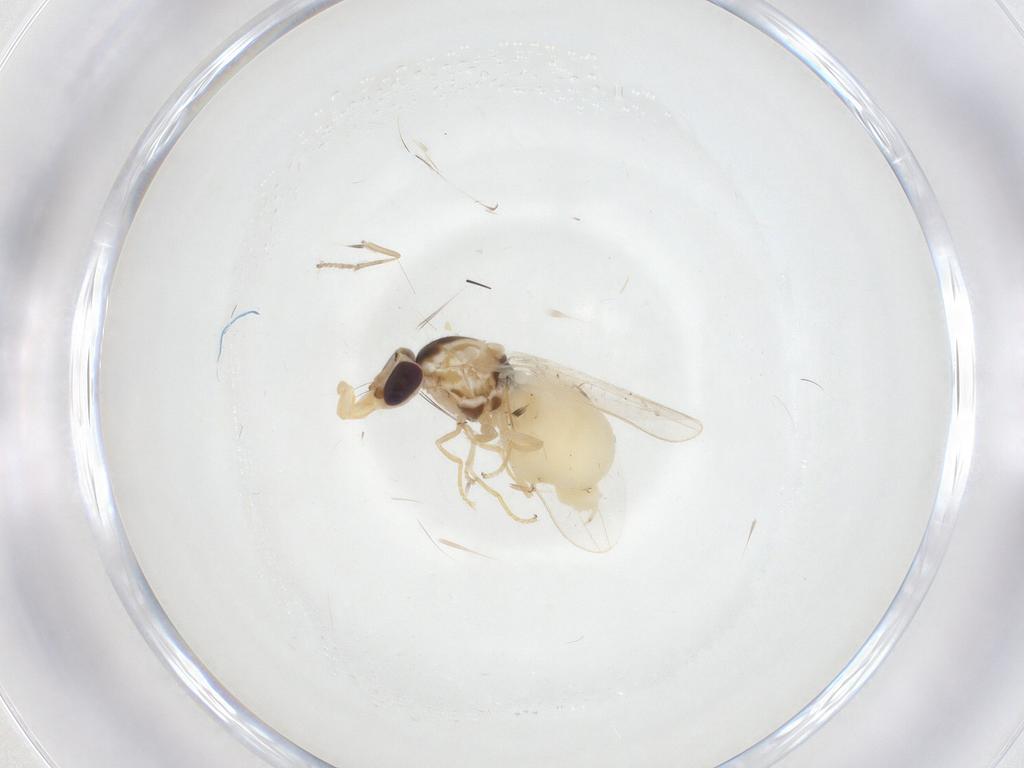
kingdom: Animalia
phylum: Arthropoda
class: Insecta
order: Diptera
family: Chloropidae
